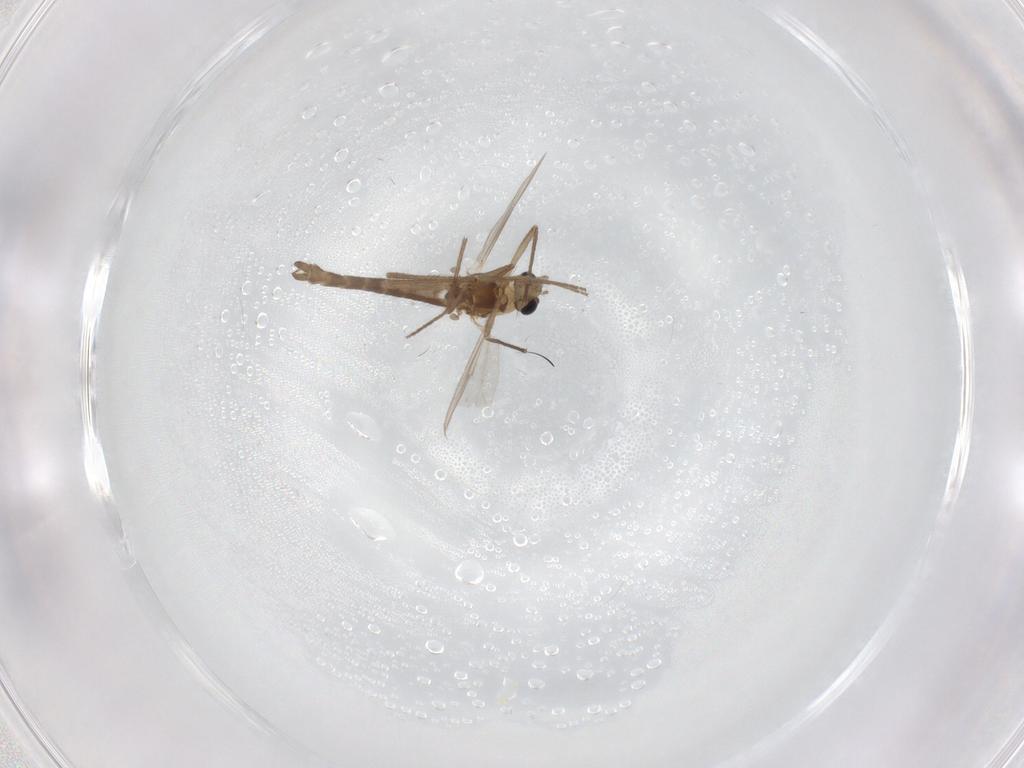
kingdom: Animalia
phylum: Arthropoda
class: Insecta
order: Diptera
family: Chironomidae
